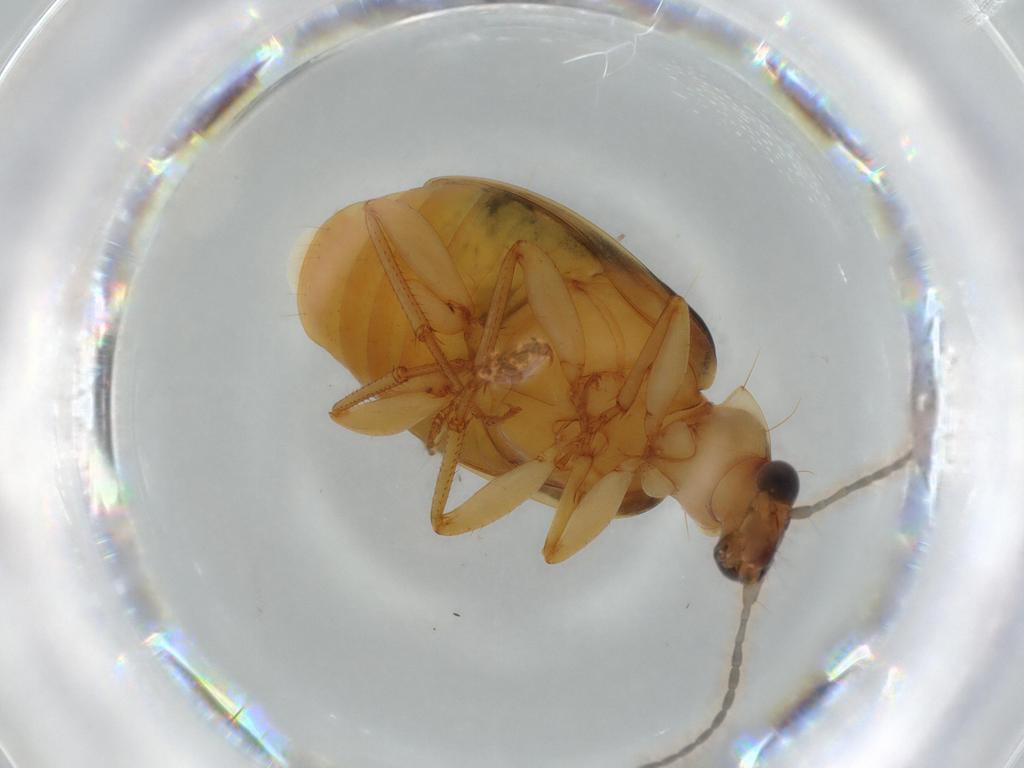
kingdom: Animalia
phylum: Arthropoda
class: Insecta
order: Coleoptera
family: Carabidae
